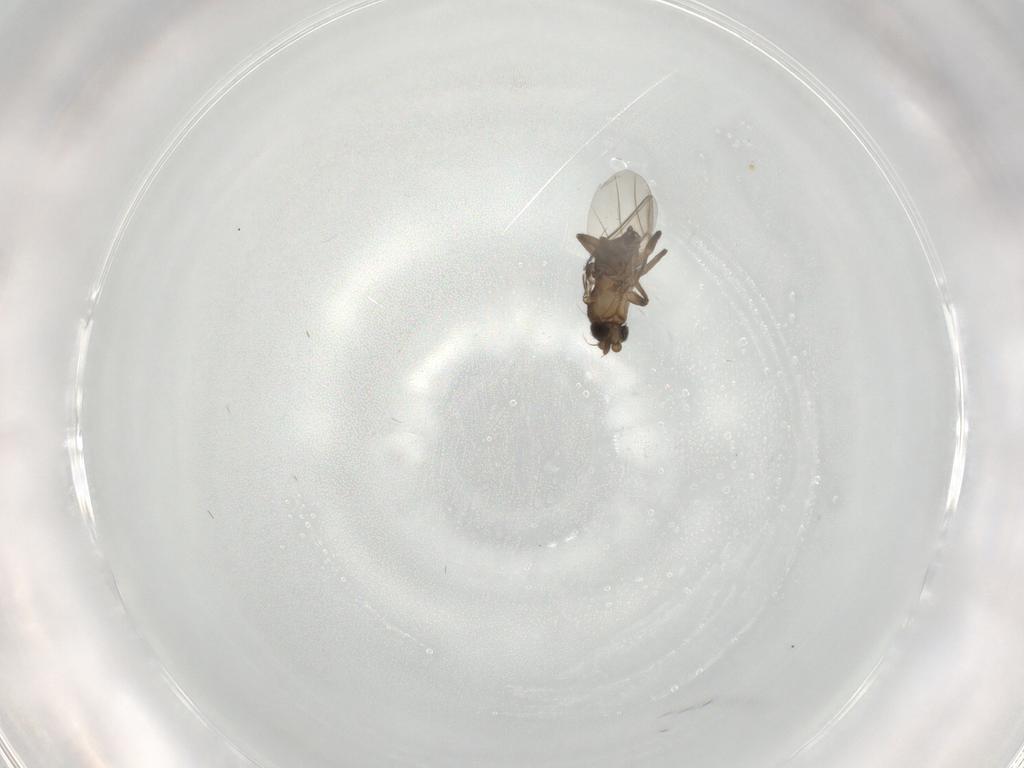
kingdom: Animalia
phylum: Arthropoda
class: Insecta
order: Diptera
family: Phoridae
